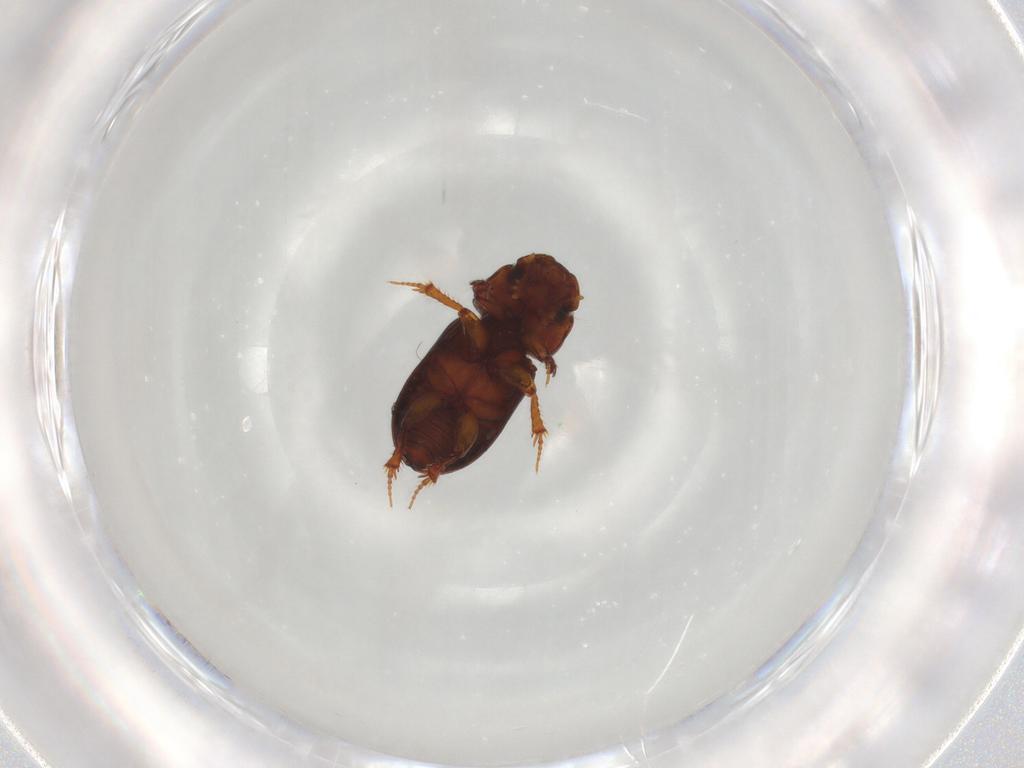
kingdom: Animalia
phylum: Arthropoda
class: Insecta
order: Coleoptera
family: Scarabaeidae
